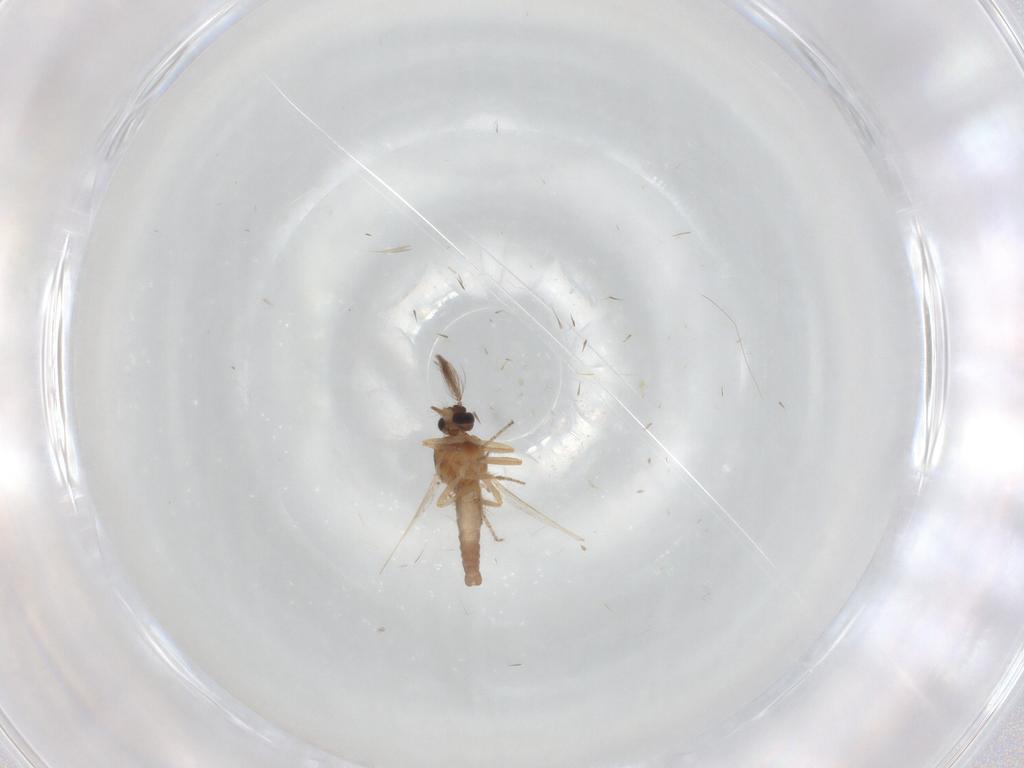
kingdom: Animalia
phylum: Arthropoda
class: Insecta
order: Diptera
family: Ceratopogonidae
